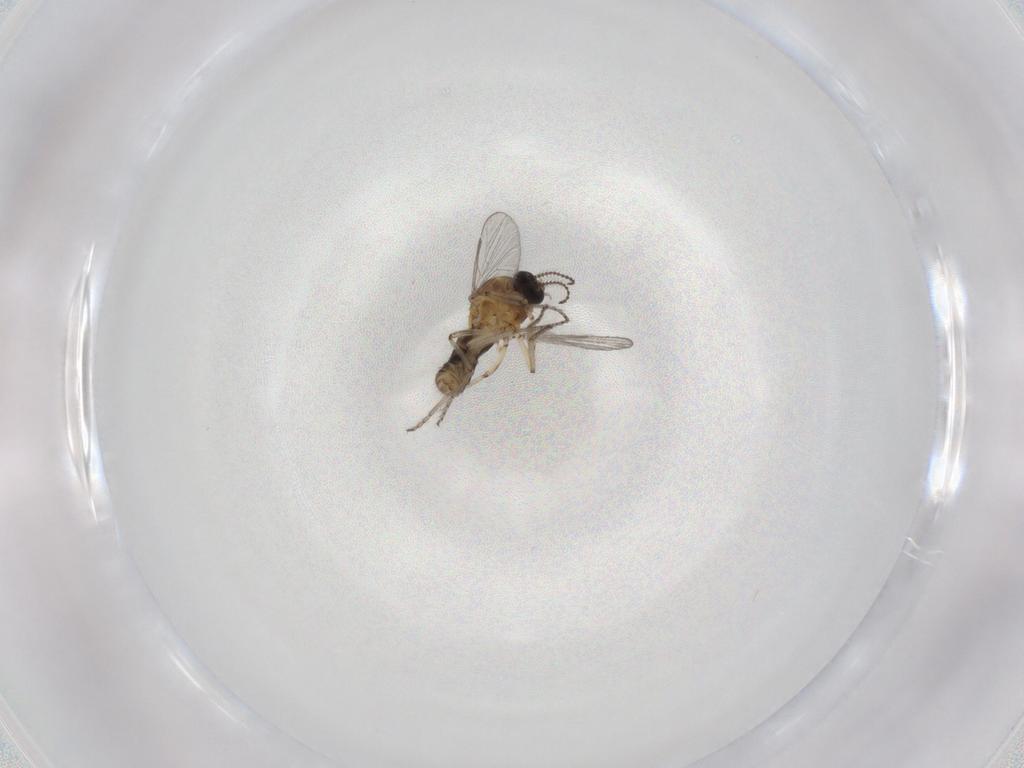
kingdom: Animalia
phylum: Arthropoda
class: Insecta
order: Diptera
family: Ceratopogonidae
